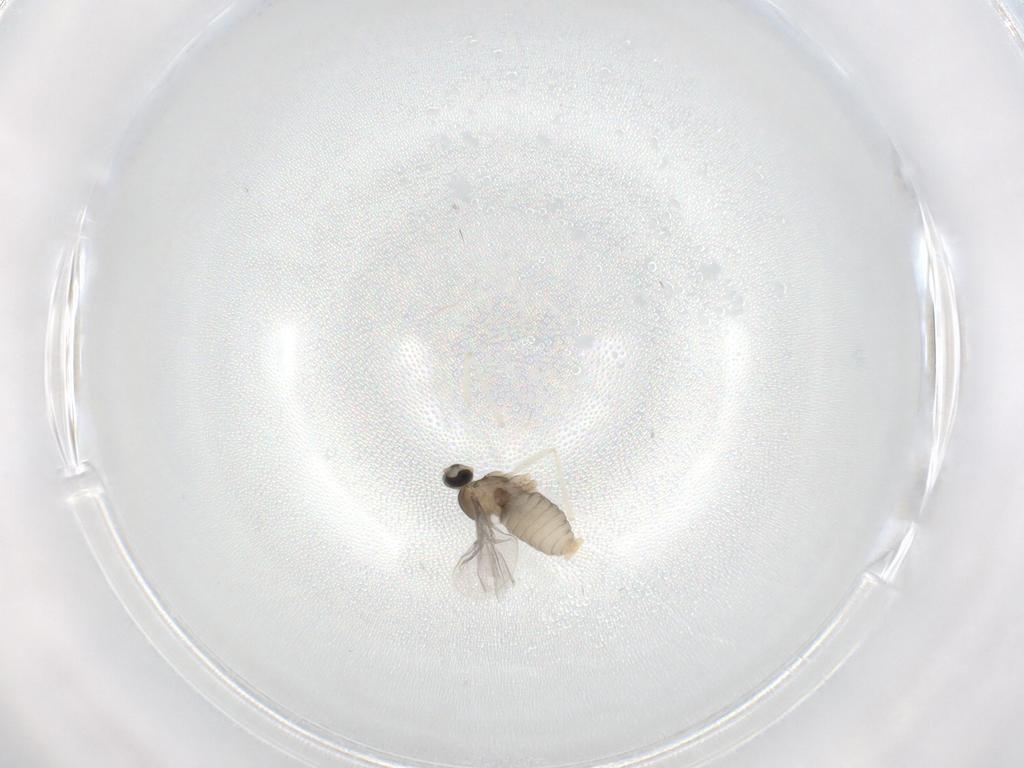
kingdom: Animalia
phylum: Arthropoda
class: Insecta
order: Diptera
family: Cecidomyiidae
